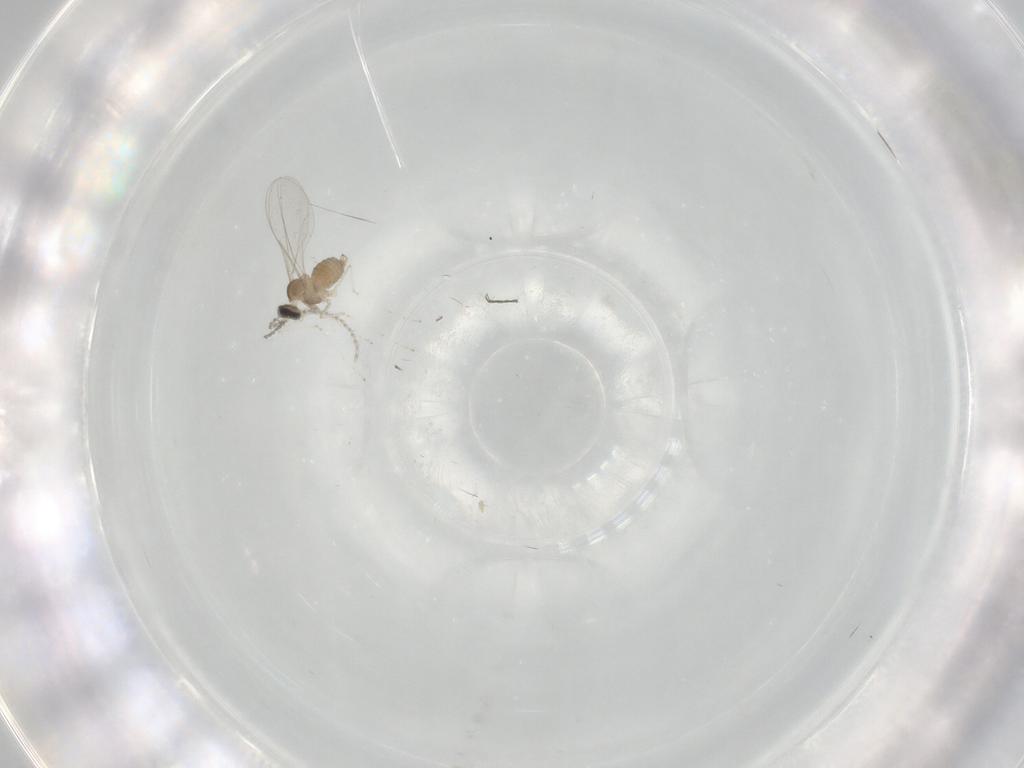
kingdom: Animalia
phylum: Arthropoda
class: Insecta
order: Diptera
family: Cecidomyiidae
